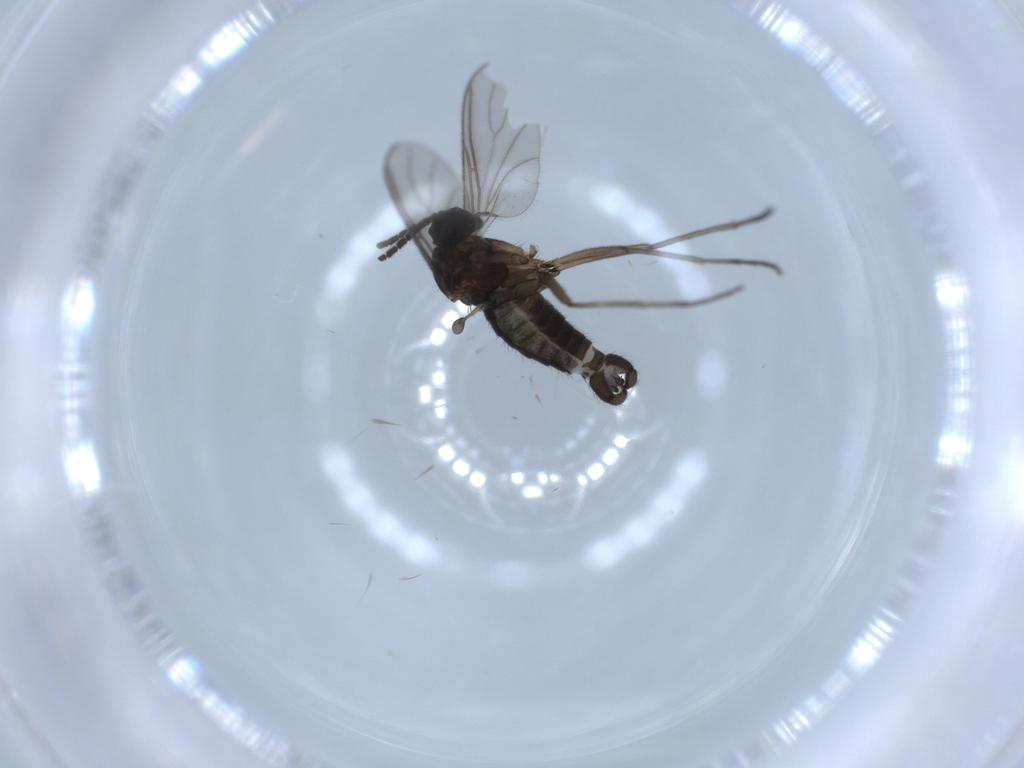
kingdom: Animalia
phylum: Arthropoda
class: Insecta
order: Diptera
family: Sciaridae
